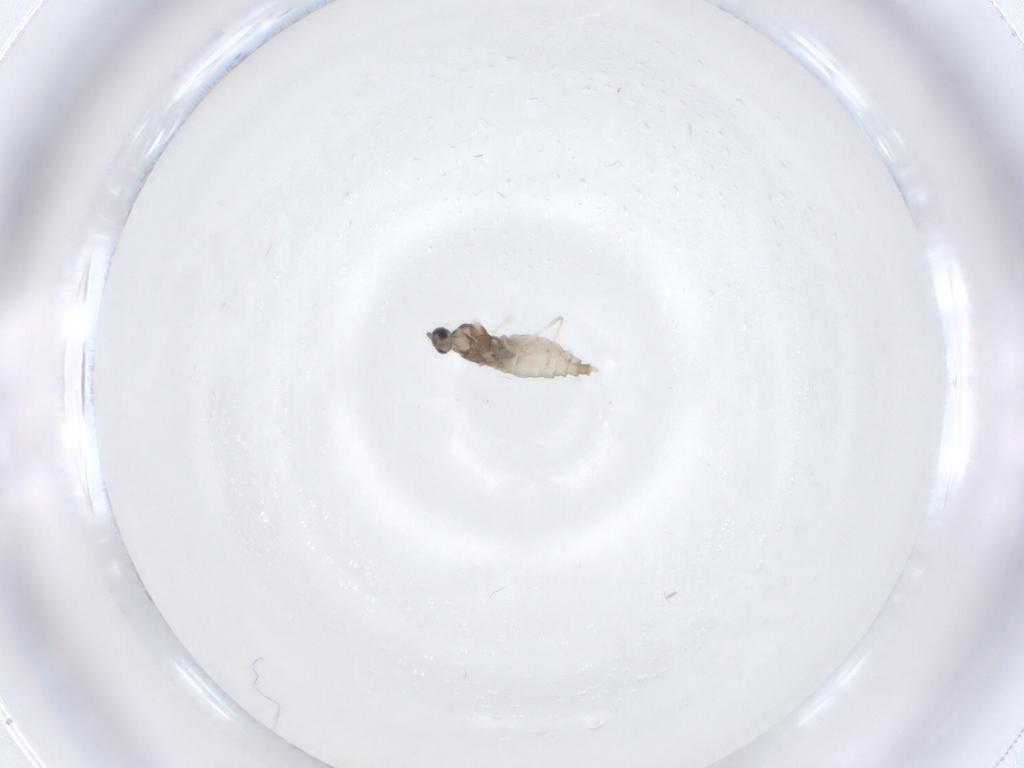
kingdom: Animalia
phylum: Arthropoda
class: Insecta
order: Diptera
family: Cecidomyiidae
